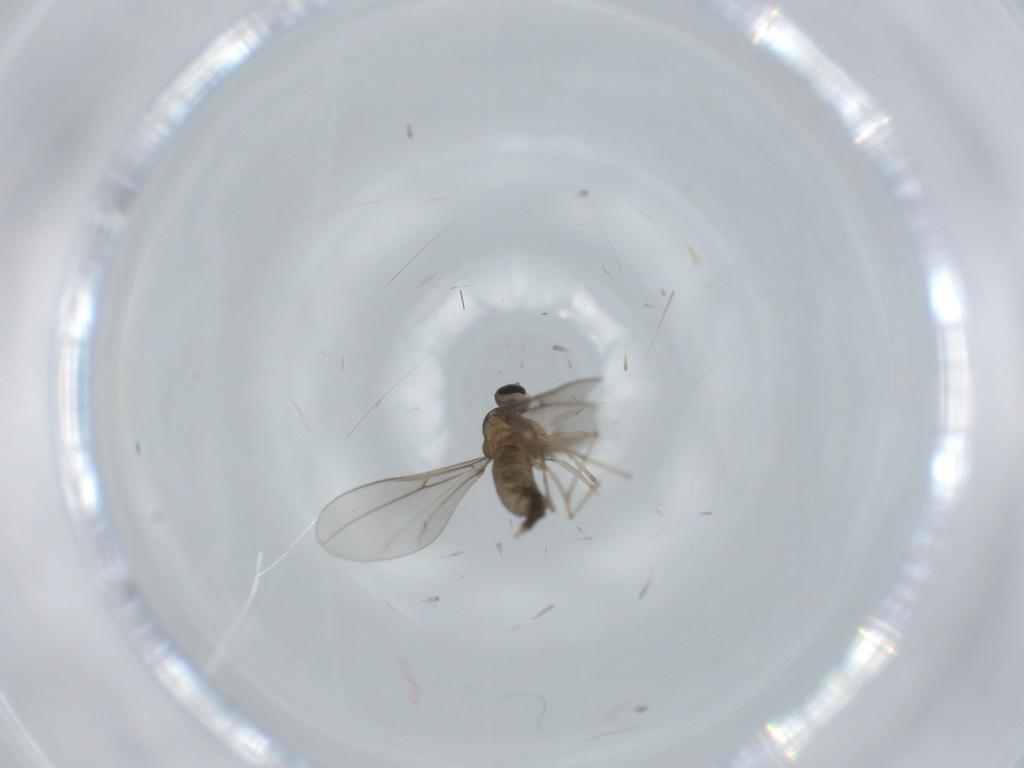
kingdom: Animalia
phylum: Arthropoda
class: Insecta
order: Diptera
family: Cecidomyiidae
